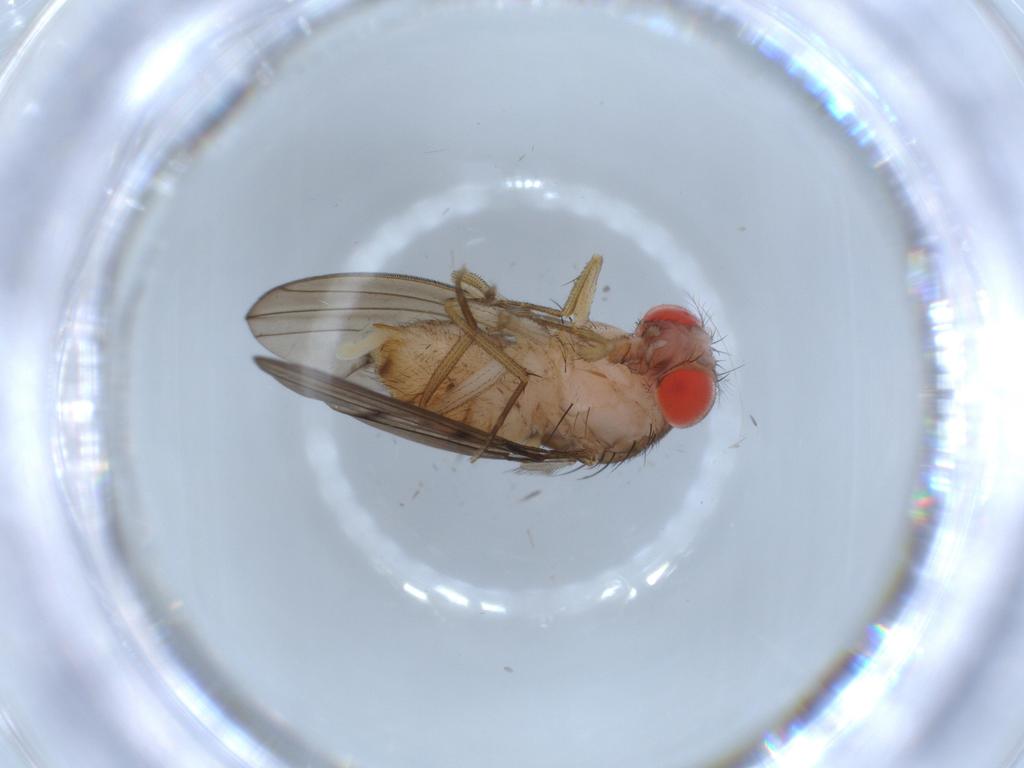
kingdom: Animalia
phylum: Arthropoda
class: Insecta
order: Diptera
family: Drosophilidae
